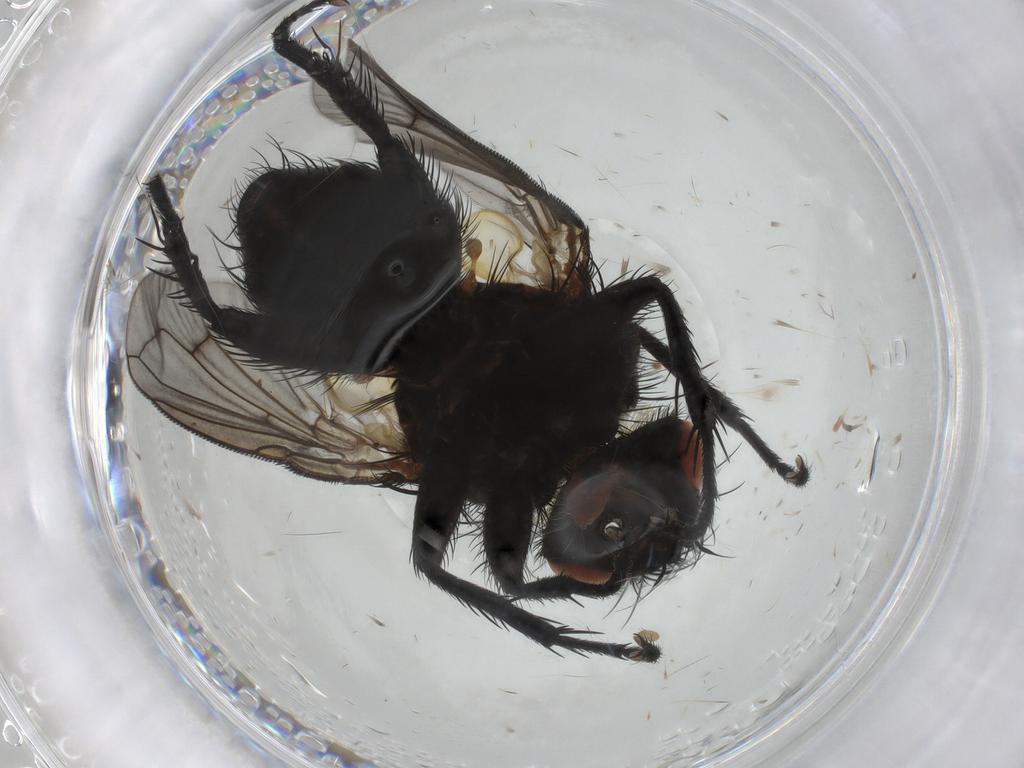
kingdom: Animalia
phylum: Arthropoda
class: Insecta
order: Diptera
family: Tachinidae
